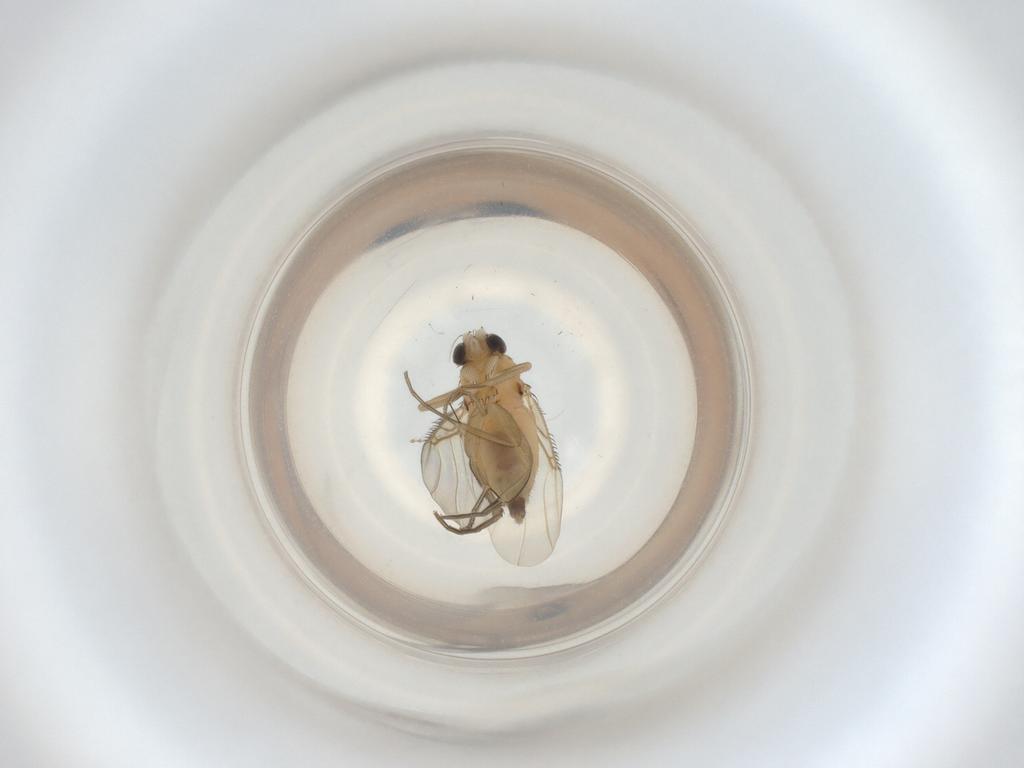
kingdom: Animalia
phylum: Arthropoda
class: Insecta
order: Diptera
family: Phoridae
